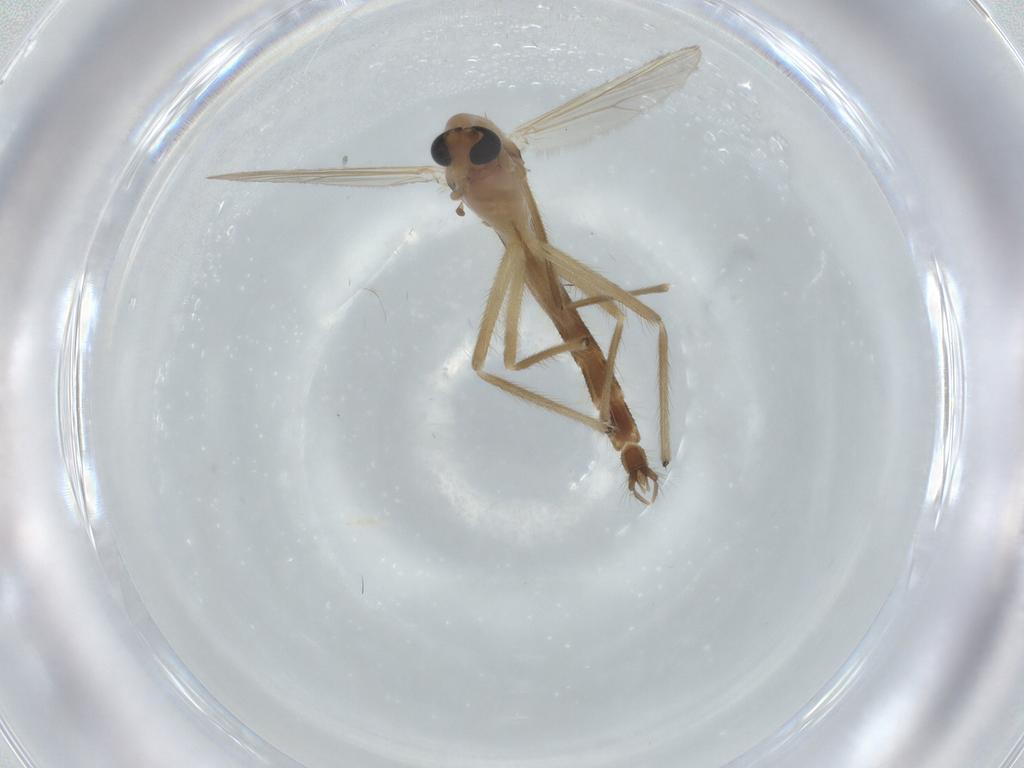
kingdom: Animalia
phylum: Arthropoda
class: Insecta
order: Diptera
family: Chironomidae
